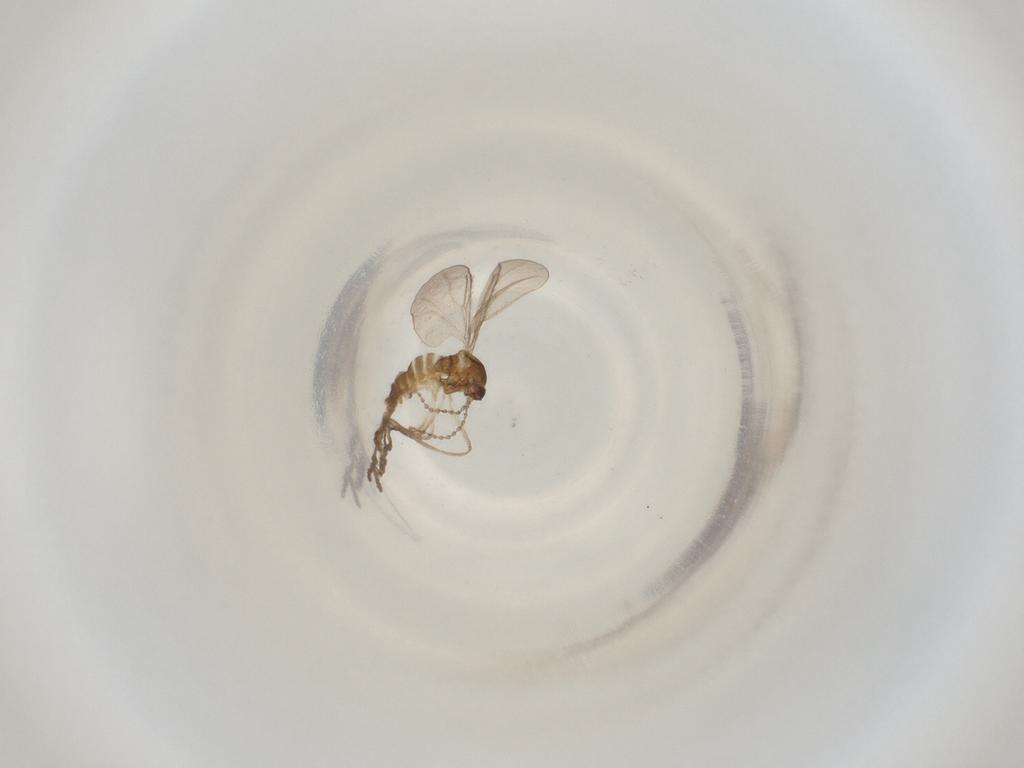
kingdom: Animalia
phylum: Arthropoda
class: Insecta
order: Diptera
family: Cecidomyiidae
